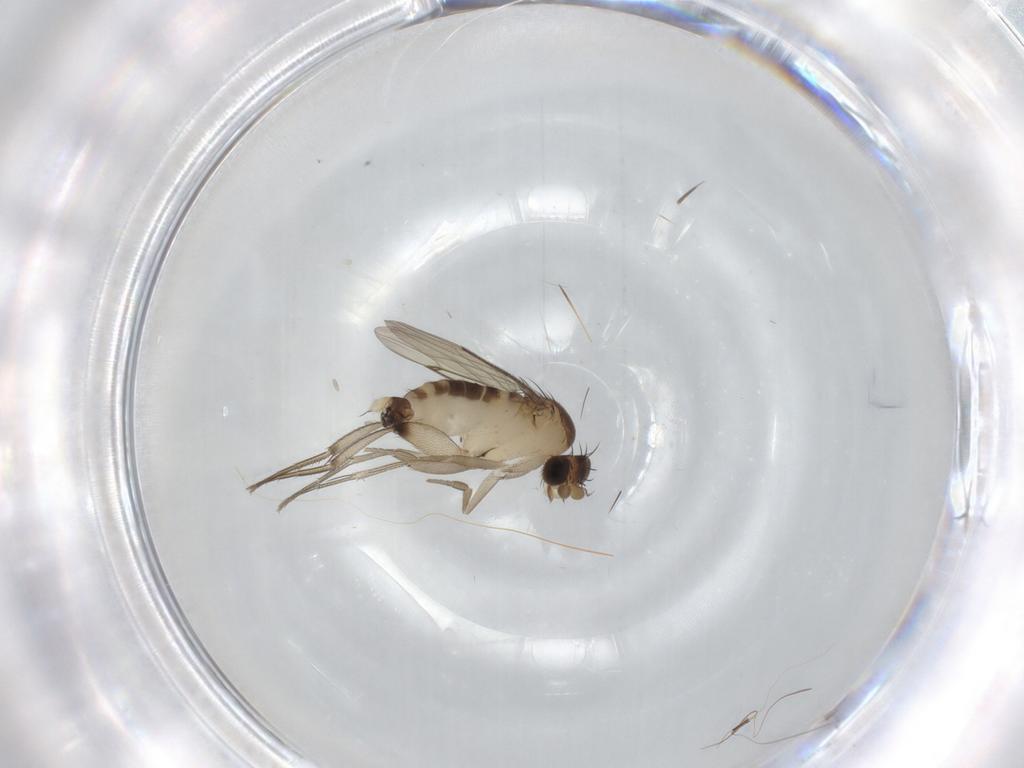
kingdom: Animalia
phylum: Arthropoda
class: Insecta
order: Diptera
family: Phoridae
